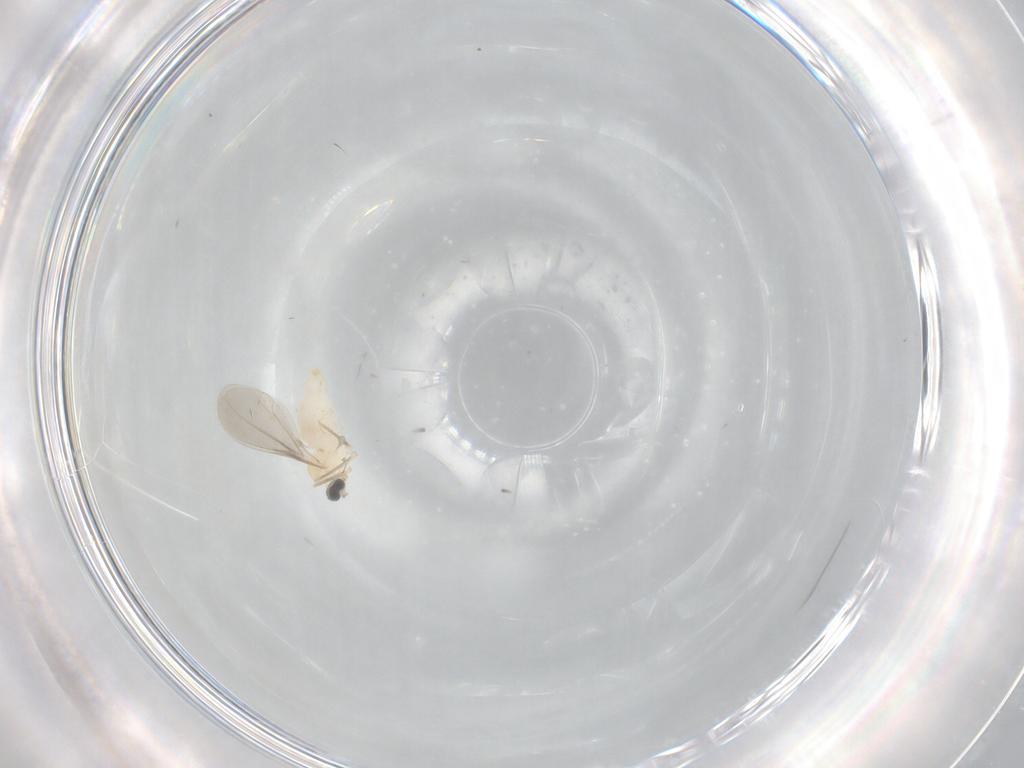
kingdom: Animalia
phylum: Arthropoda
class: Insecta
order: Diptera
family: Cecidomyiidae
